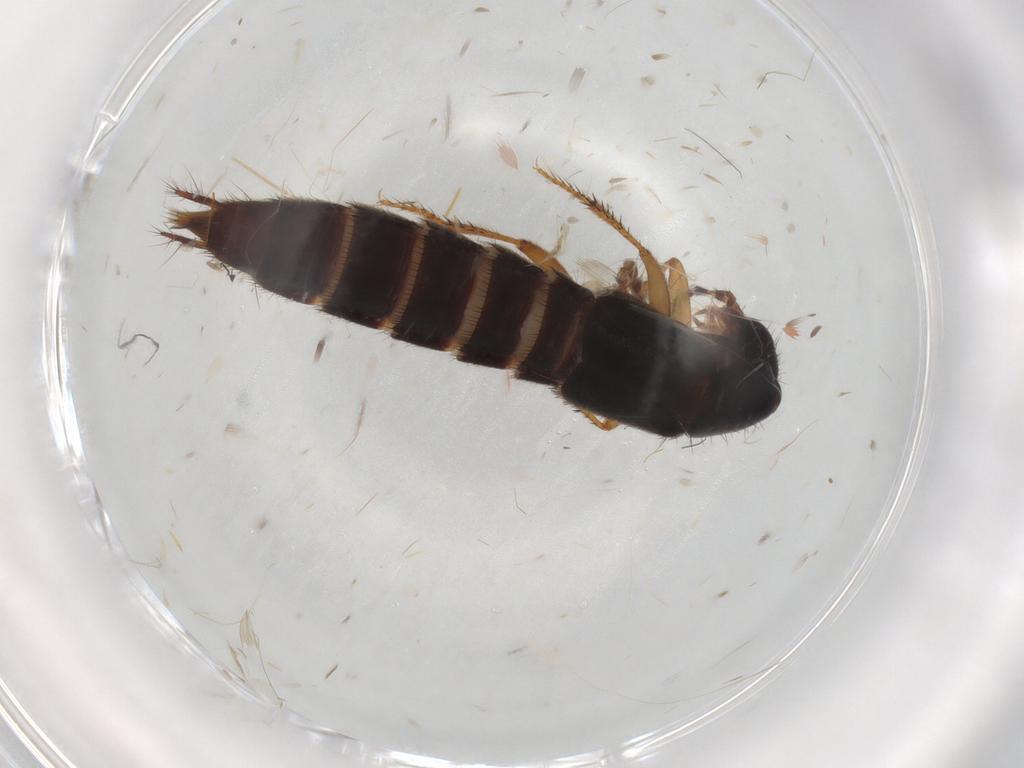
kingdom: Animalia
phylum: Arthropoda
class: Insecta
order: Coleoptera
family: Staphylinidae
